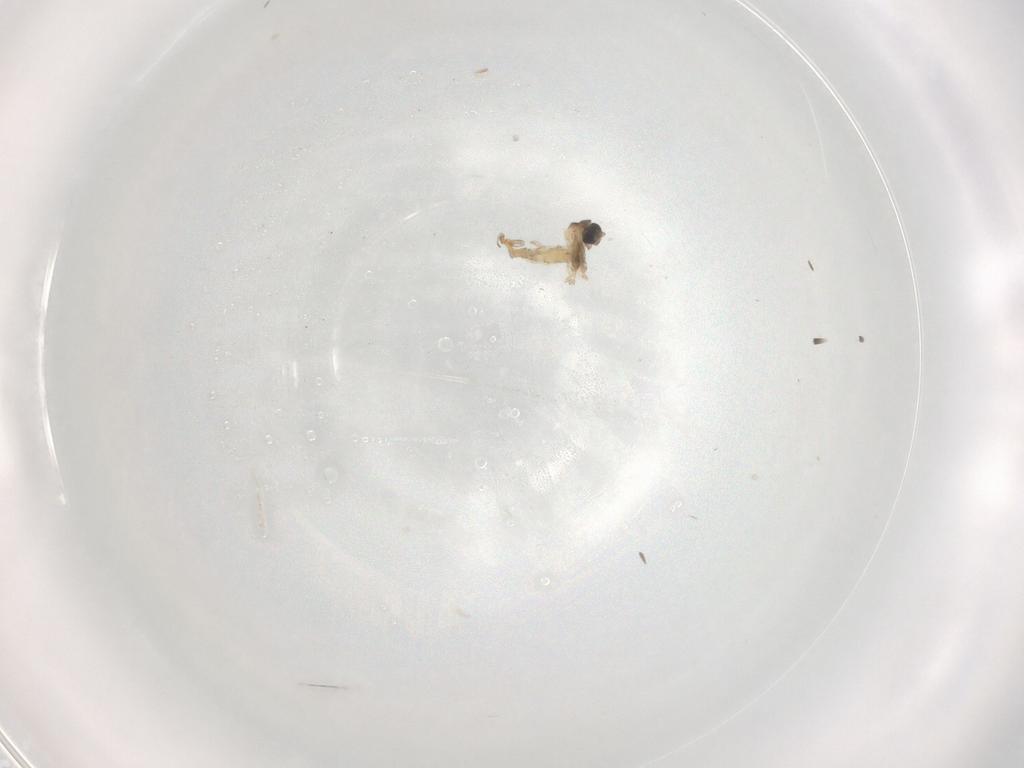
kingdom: Animalia
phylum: Arthropoda
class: Insecta
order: Diptera
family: Cecidomyiidae
